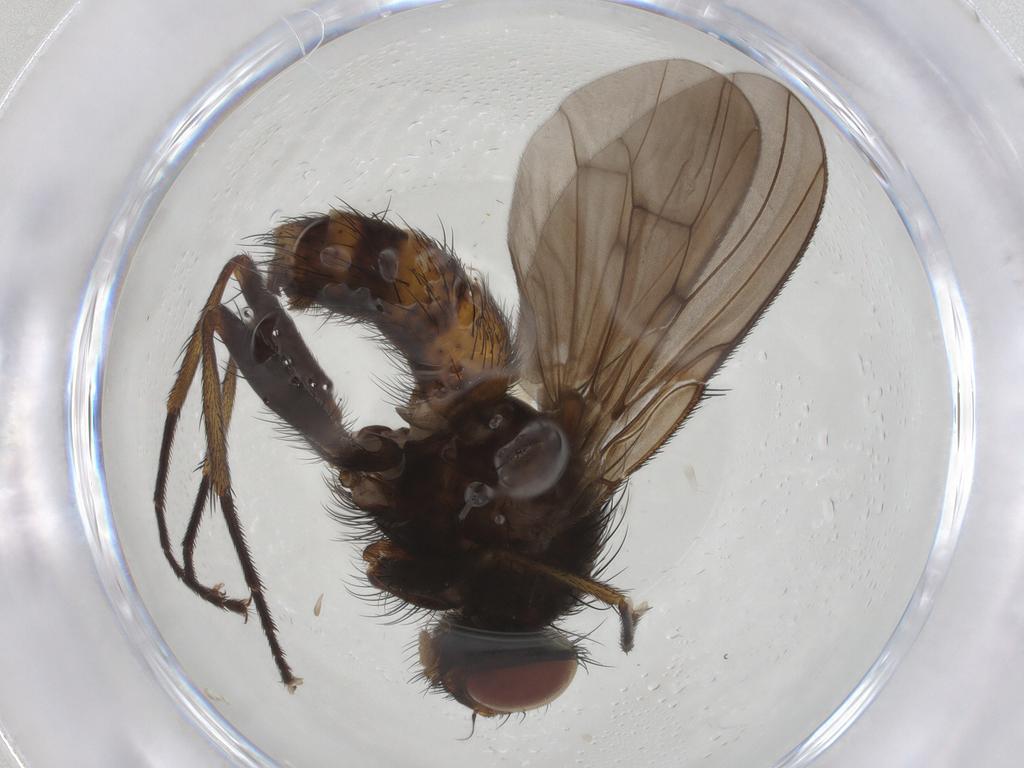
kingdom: Animalia
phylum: Arthropoda
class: Insecta
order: Diptera
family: Muscidae
